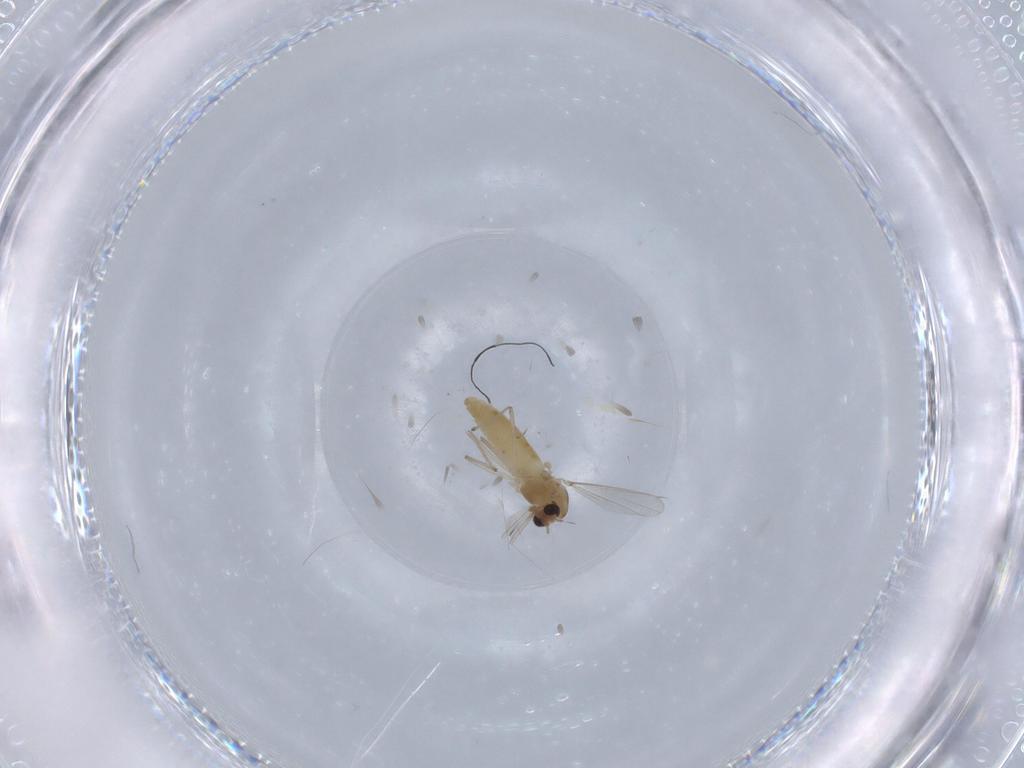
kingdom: Animalia
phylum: Arthropoda
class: Insecta
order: Diptera
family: Chironomidae
